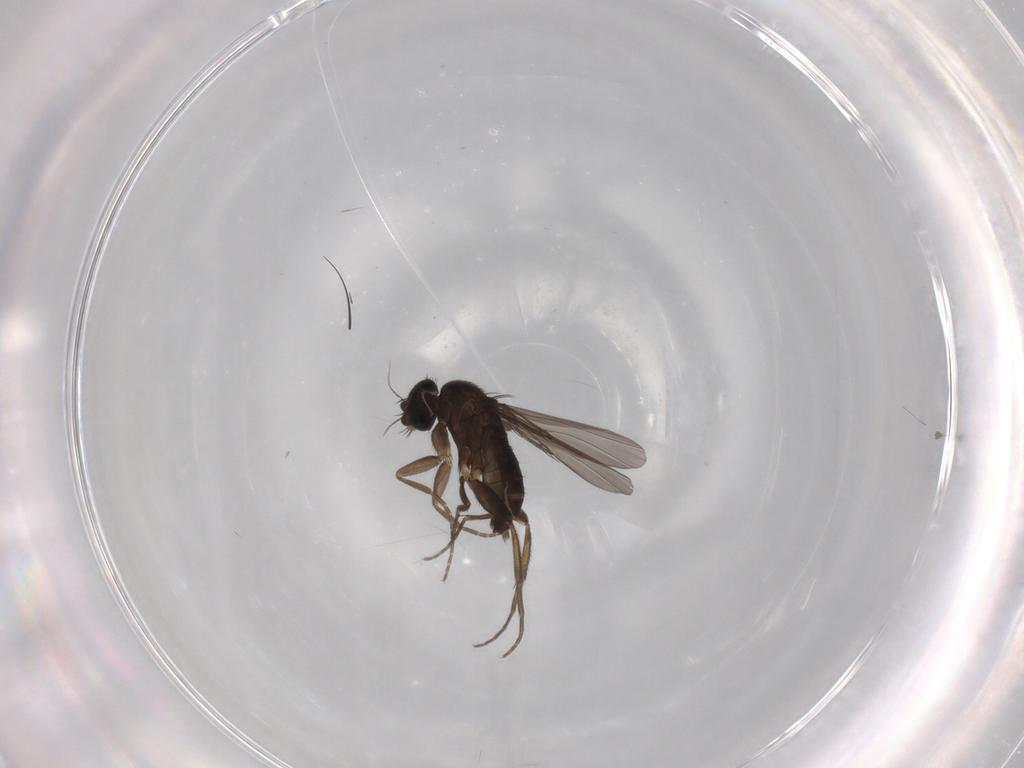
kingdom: Animalia
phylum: Arthropoda
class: Insecta
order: Diptera
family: Phoridae
